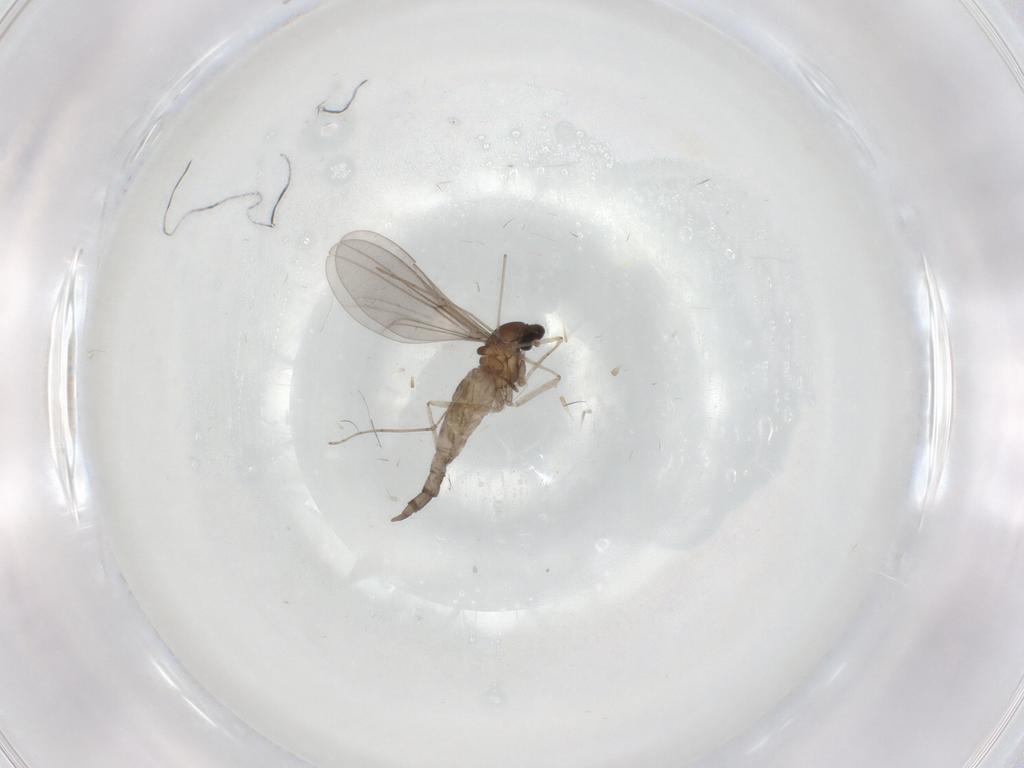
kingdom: Animalia
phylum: Arthropoda
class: Insecta
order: Diptera
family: Cecidomyiidae
